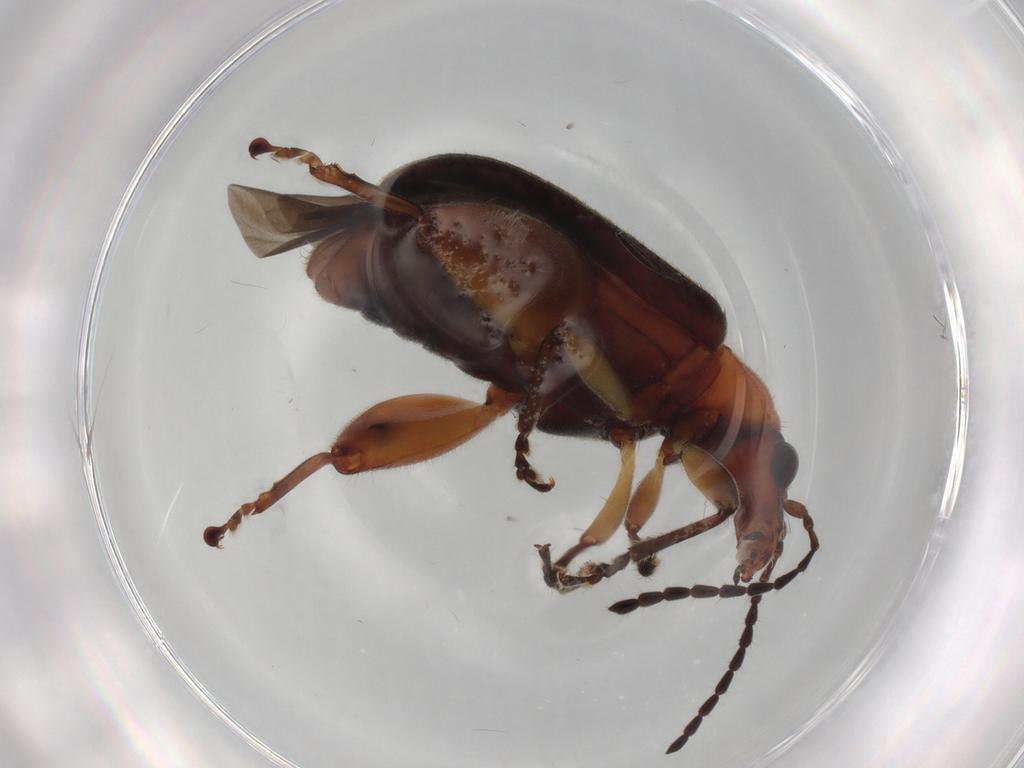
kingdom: Animalia
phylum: Arthropoda
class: Insecta
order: Coleoptera
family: Chrysomelidae
